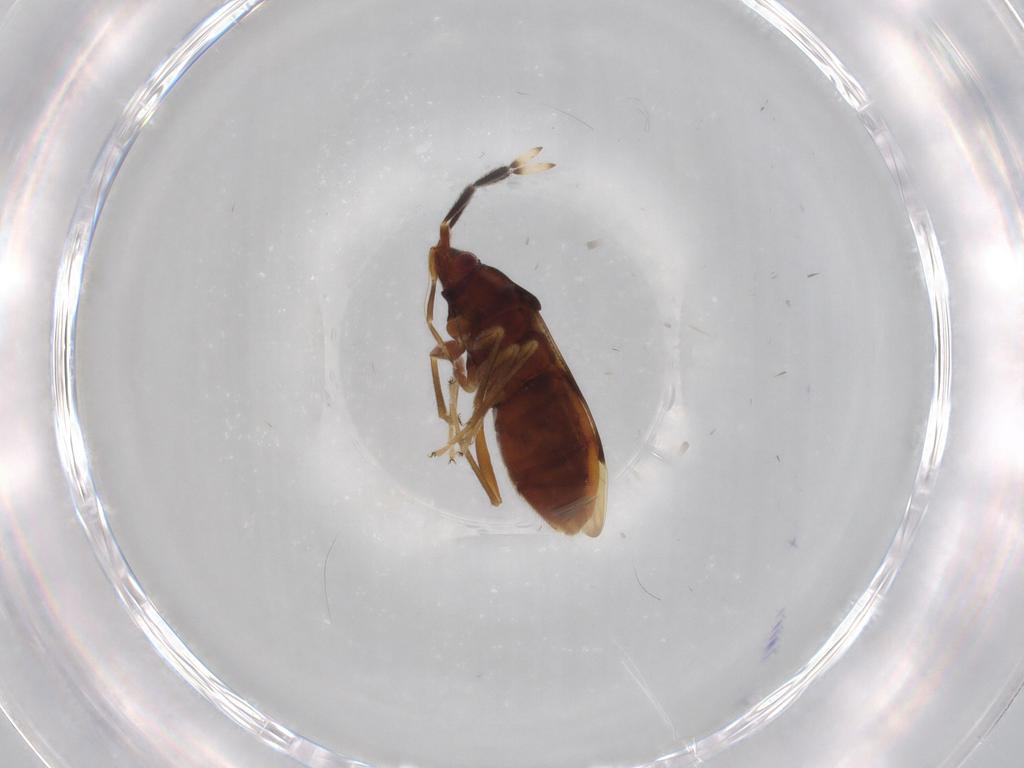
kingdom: Animalia
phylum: Arthropoda
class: Insecta
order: Hemiptera
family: Rhyparochromidae
